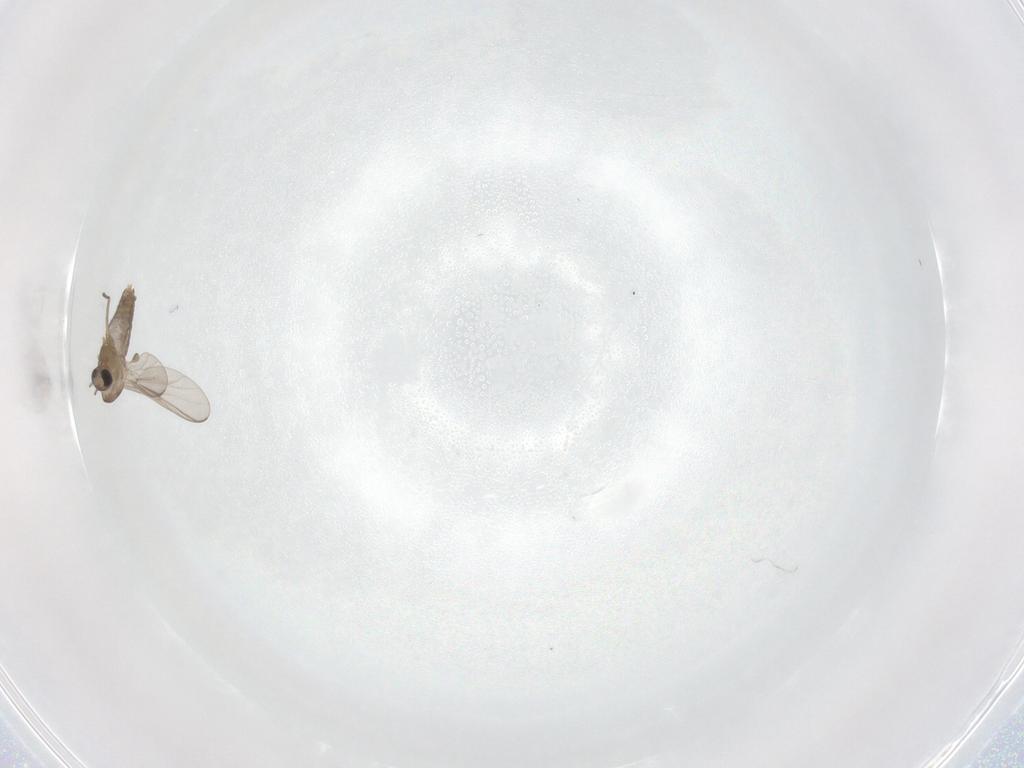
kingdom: Animalia
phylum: Arthropoda
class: Insecta
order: Diptera
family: Chironomidae
